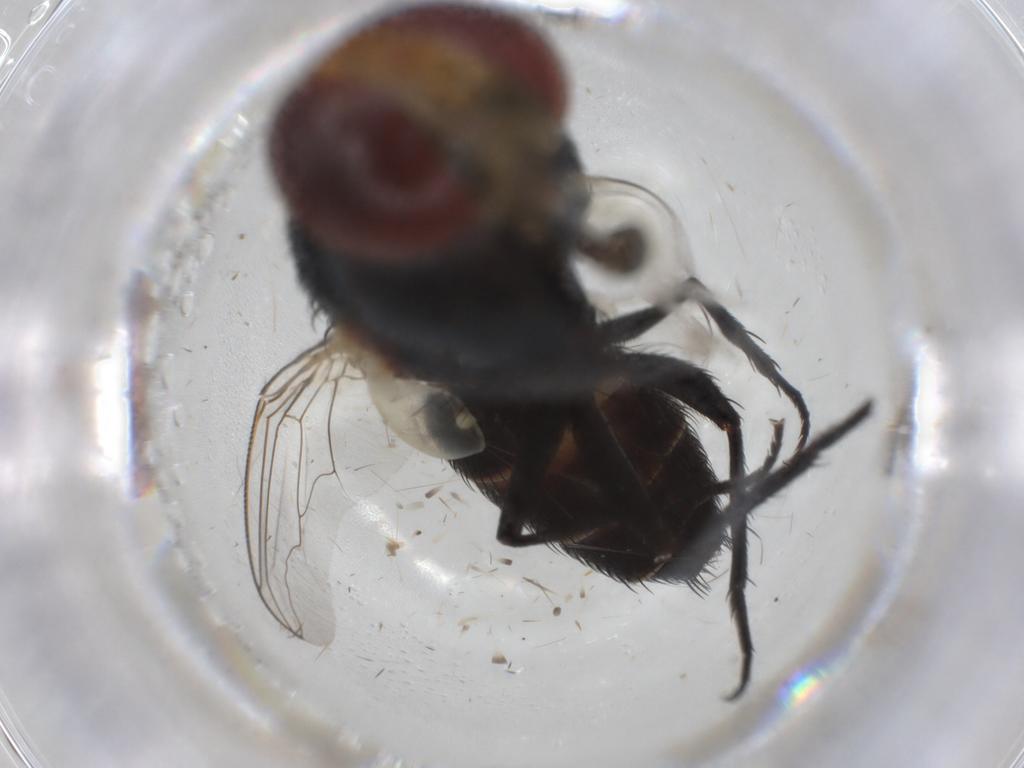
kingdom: Animalia
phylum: Arthropoda
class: Insecta
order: Diptera
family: Sarcophagidae
